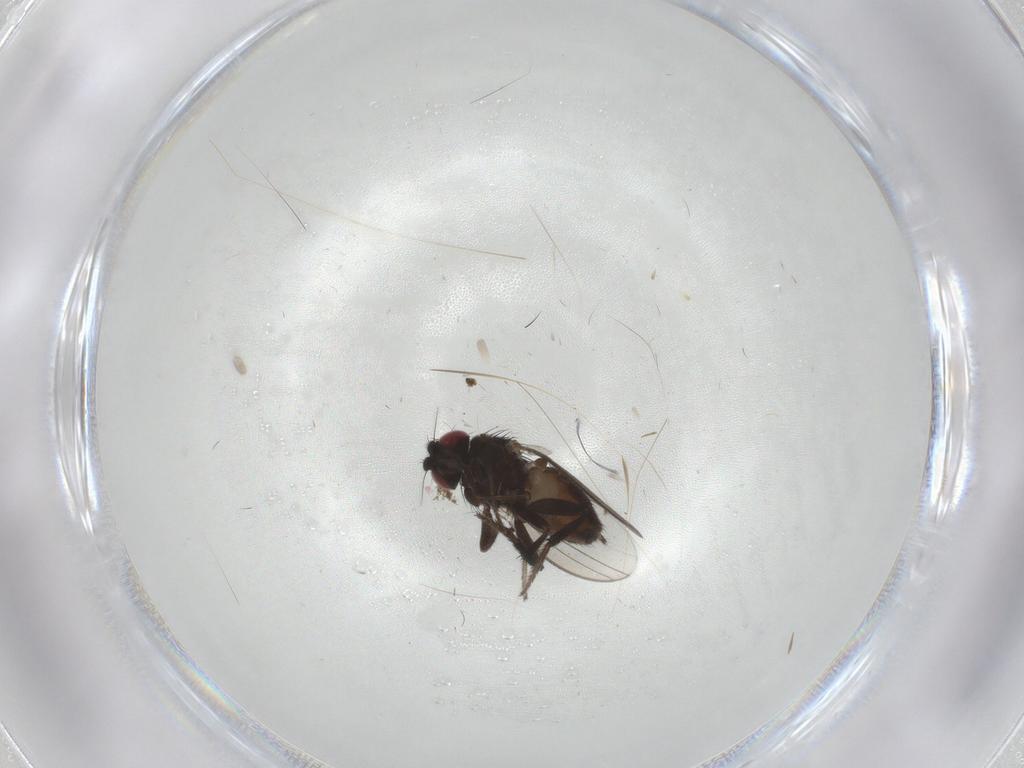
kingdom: Animalia
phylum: Arthropoda
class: Insecta
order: Diptera
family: Milichiidae
